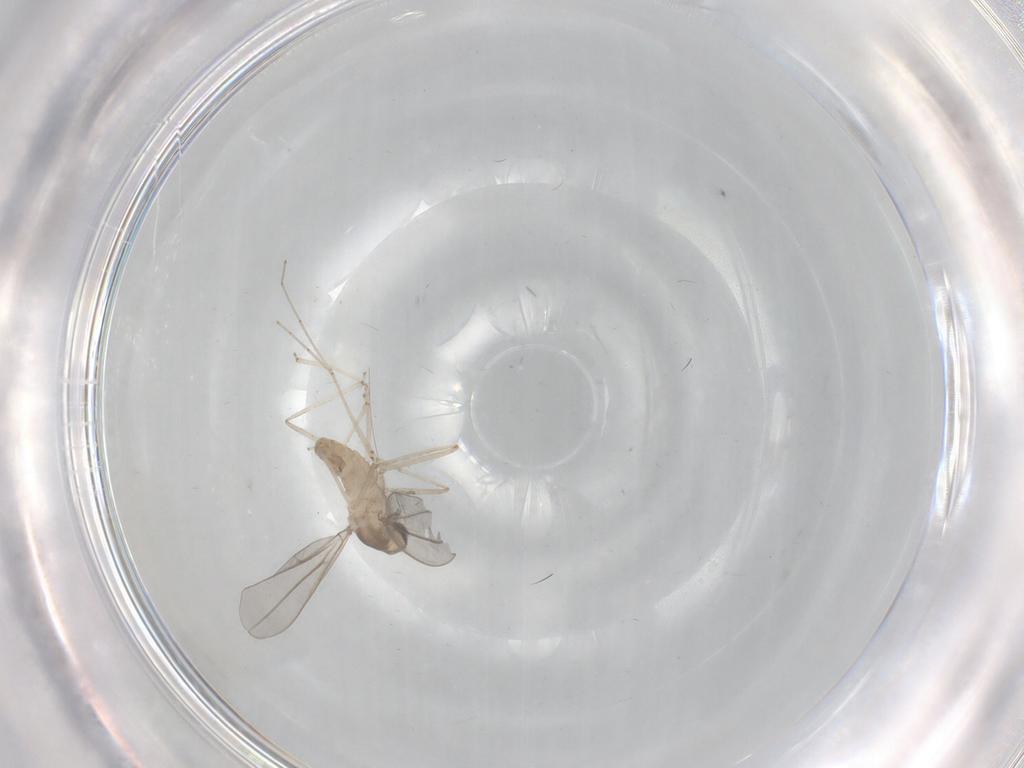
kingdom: Animalia
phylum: Arthropoda
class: Insecta
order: Diptera
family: Cecidomyiidae
